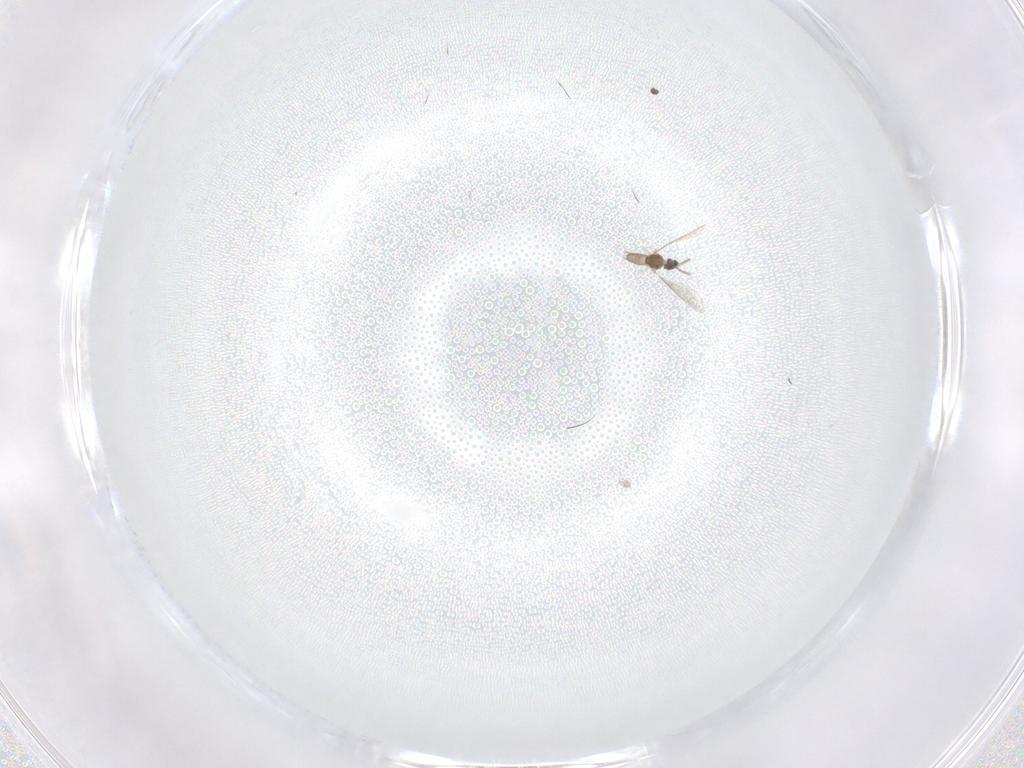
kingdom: Animalia
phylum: Arthropoda
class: Insecta
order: Diptera
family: Cecidomyiidae
